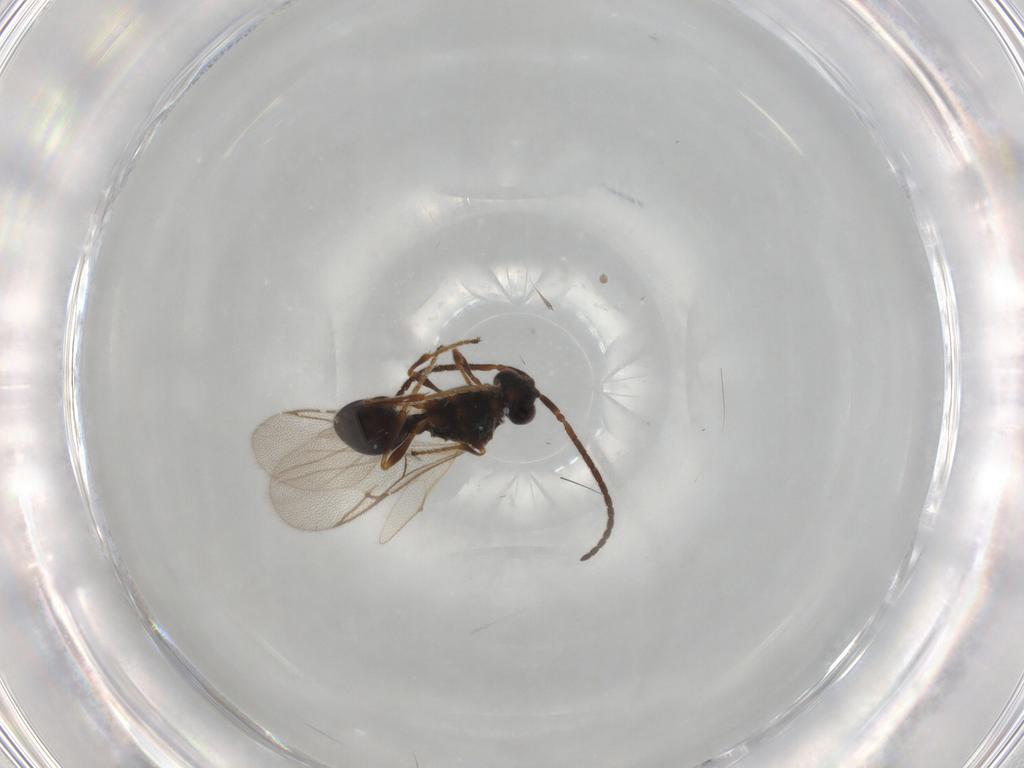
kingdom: Animalia
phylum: Arthropoda
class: Insecta
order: Hymenoptera
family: Diapriidae
